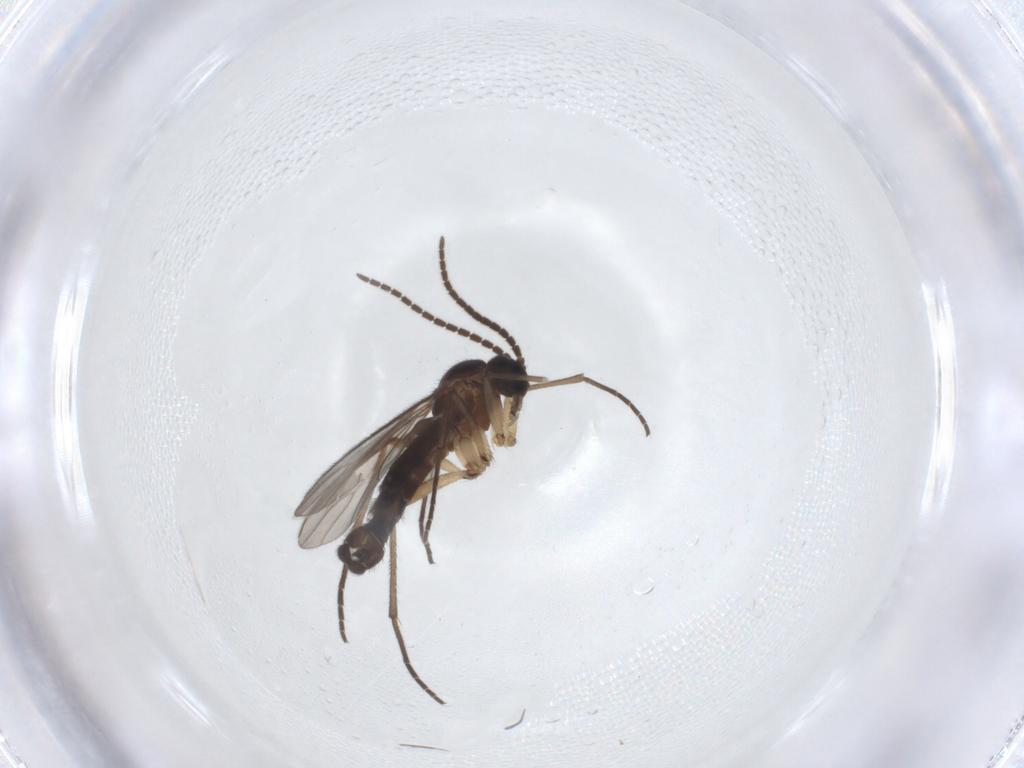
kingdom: Animalia
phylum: Arthropoda
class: Insecta
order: Diptera
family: Sciaridae
